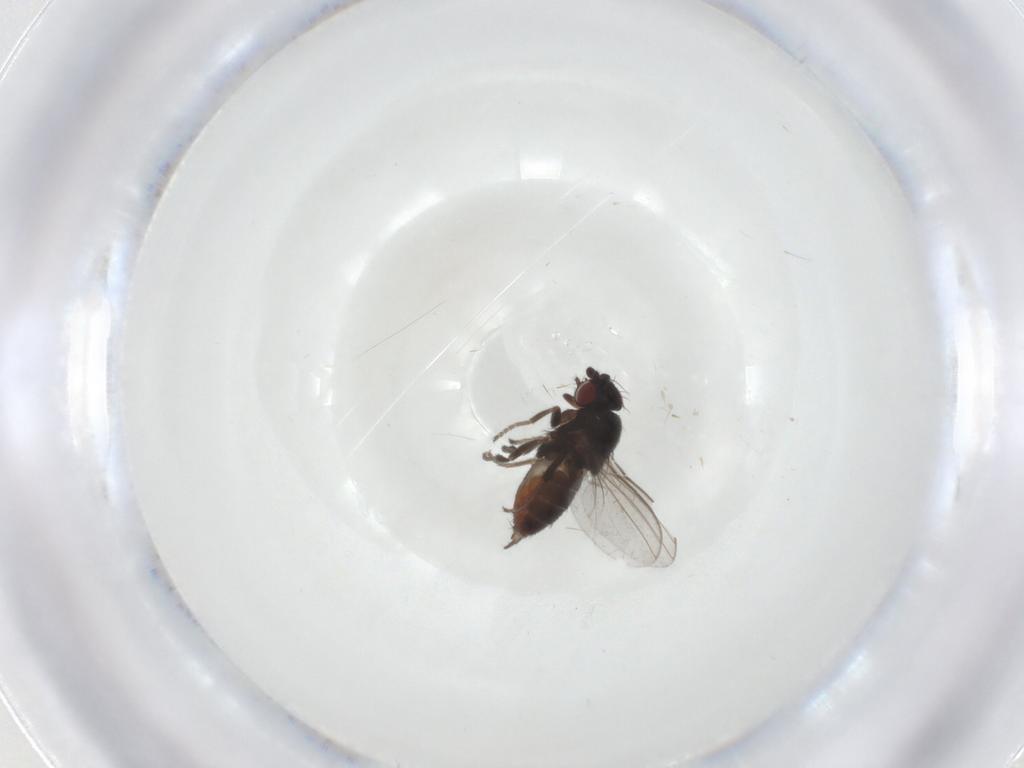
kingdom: Animalia
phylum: Arthropoda
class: Insecta
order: Diptera
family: Milichiidae
